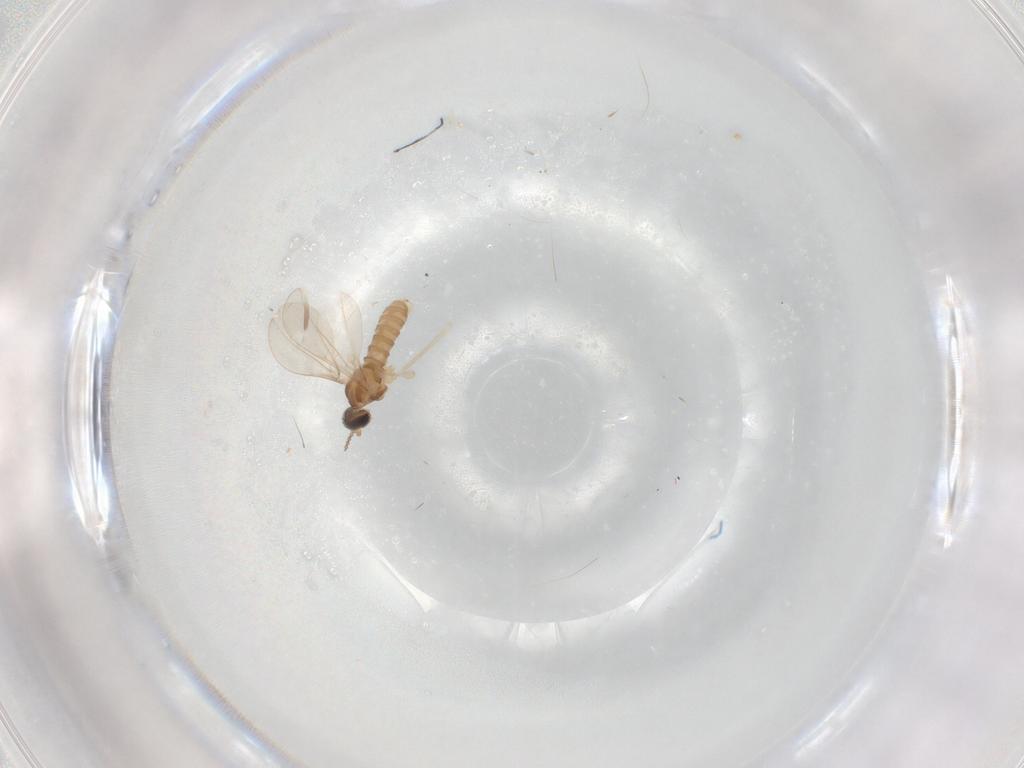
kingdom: Animalia
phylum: Arthropoda
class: Insecta
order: Diptera
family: Cecidomyiidae
